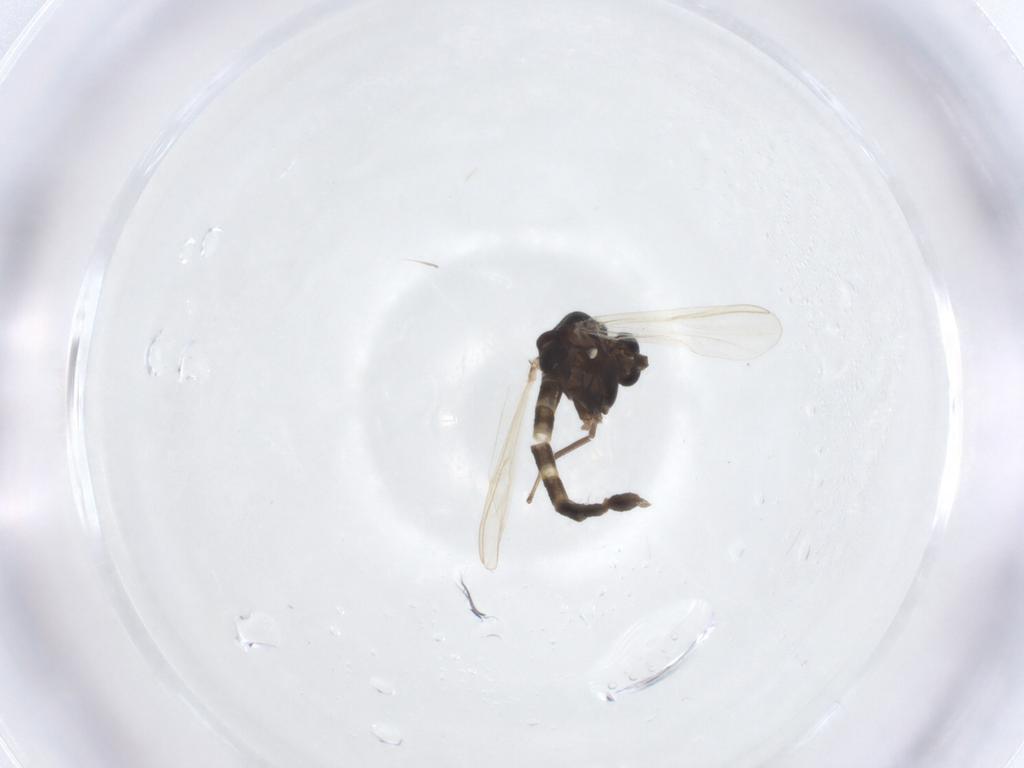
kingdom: Animalia
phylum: Arthropoda
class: Insecta
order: Diptera
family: Chironomidae
